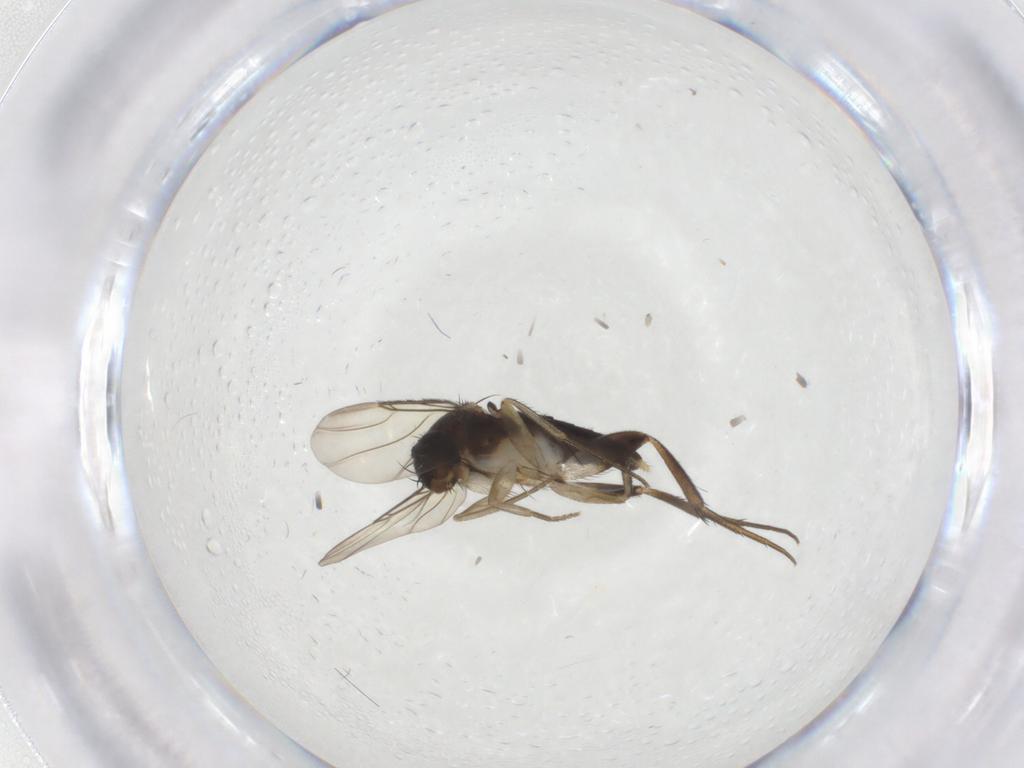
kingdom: Animalia
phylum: Arthropoda
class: Insecta
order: Diptera
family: Phoridae
